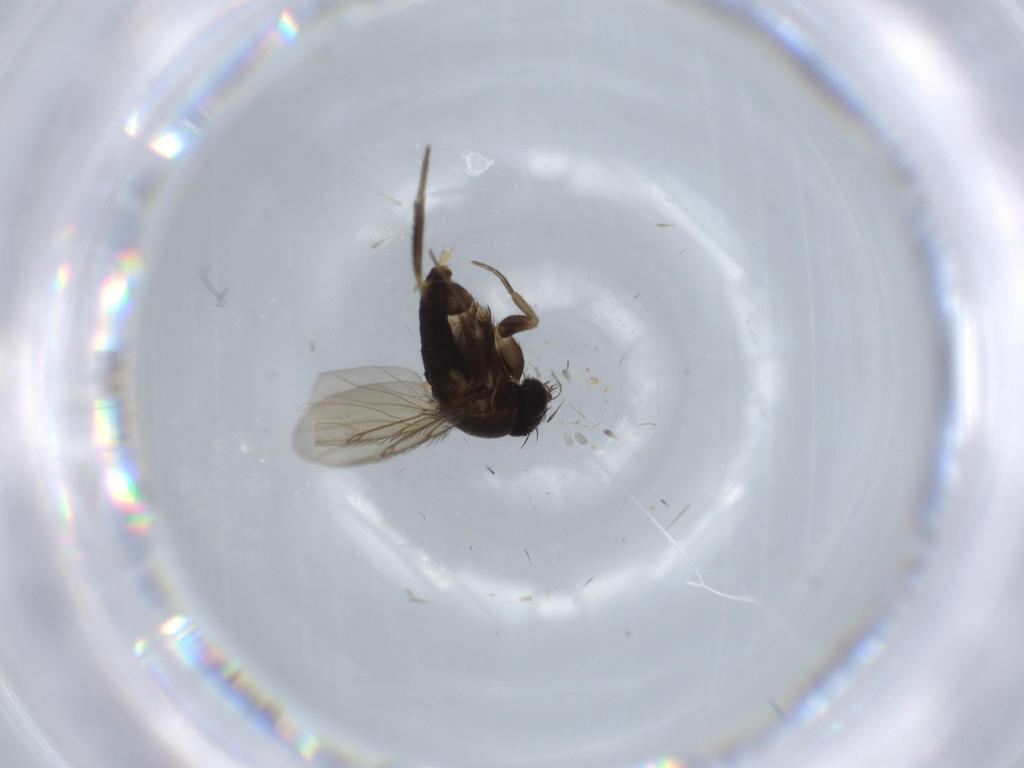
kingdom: Animalia
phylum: Arthropoda
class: Insecta
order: Diptera
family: Phoridae
